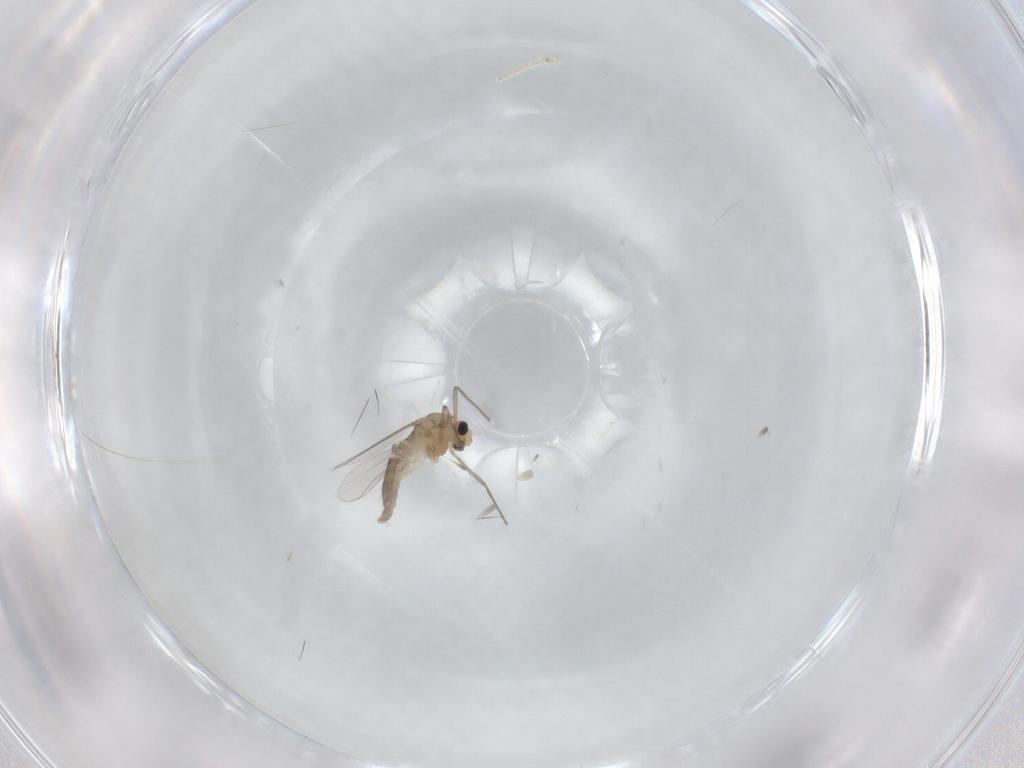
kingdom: Animalia
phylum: Arthropoda
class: Insecta
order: Diptera
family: Chironomidae
